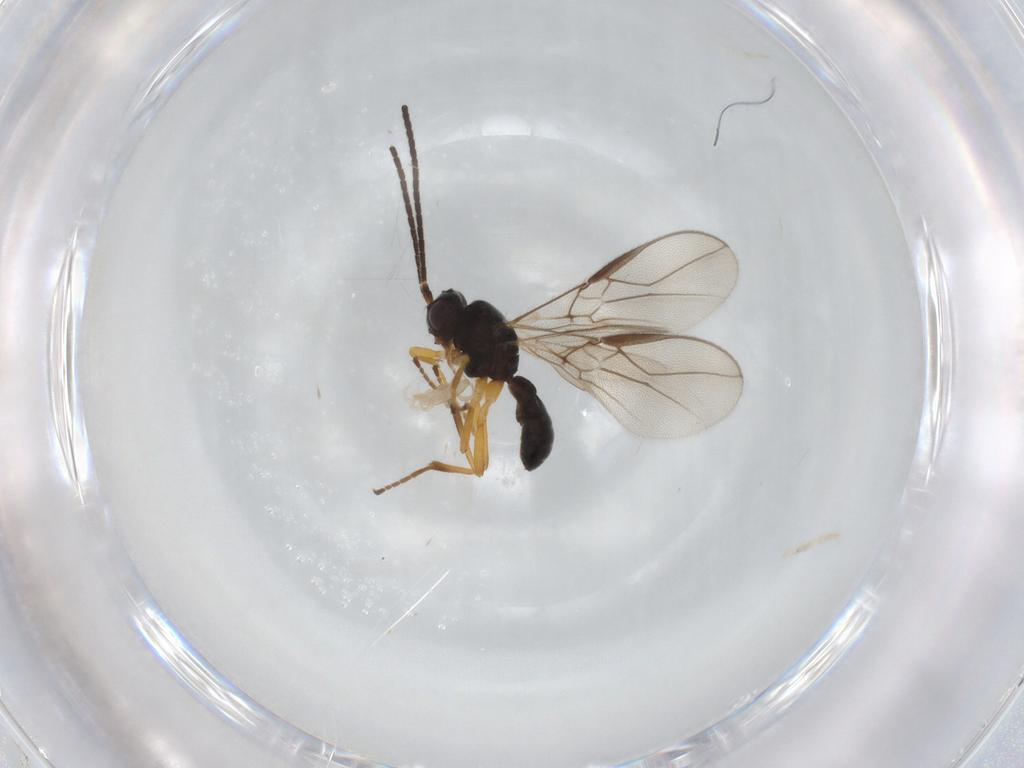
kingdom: Animalia
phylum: Arthropoda
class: Insecta
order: Hymenoptera
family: Braconidae
